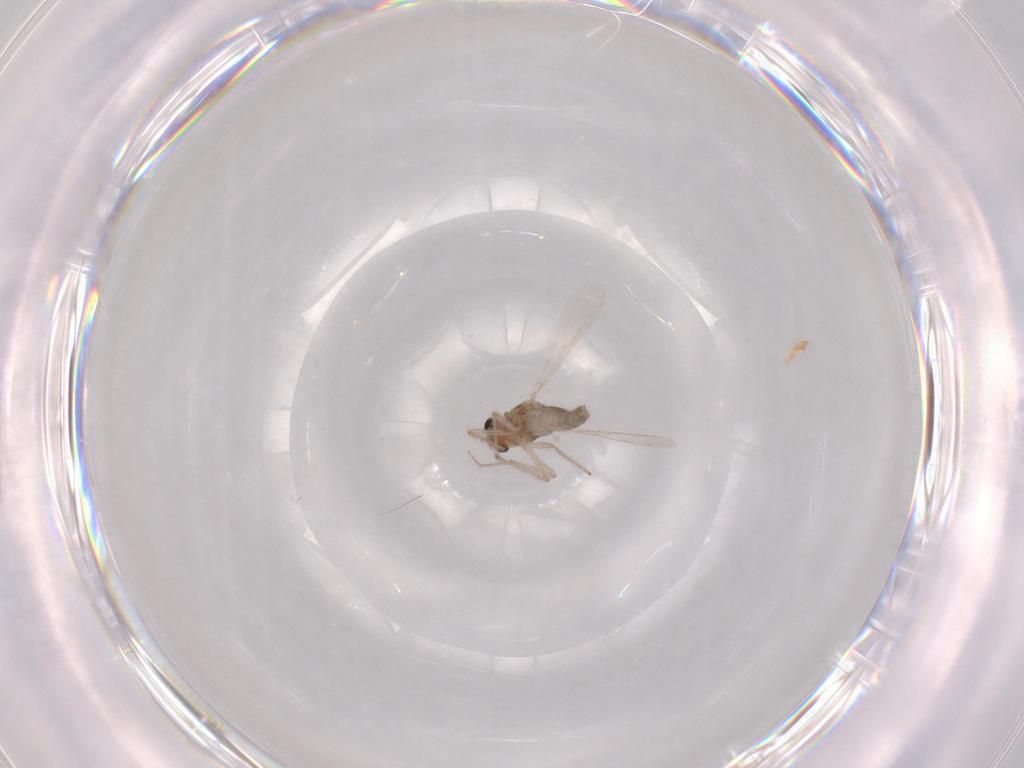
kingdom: Animalia
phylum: Arthropoda
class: Insecta
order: Diptera
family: Chironomidae
